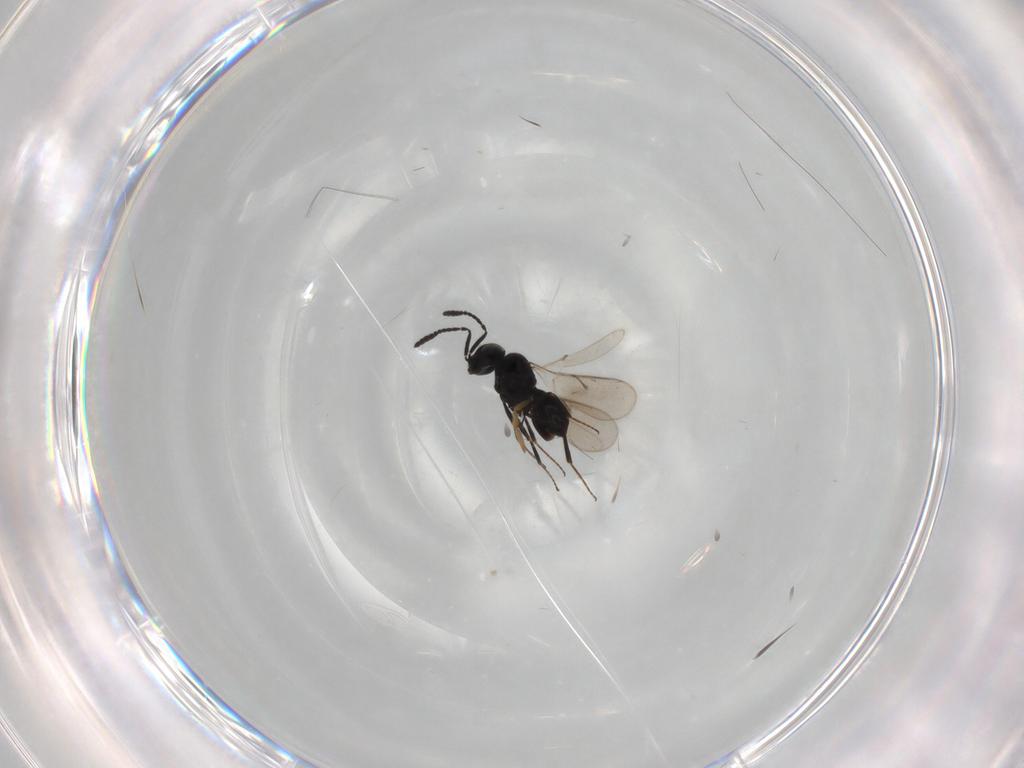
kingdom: Animalia
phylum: Arthropoda
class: Insecta
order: Hymenoptera
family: Scelionidae
